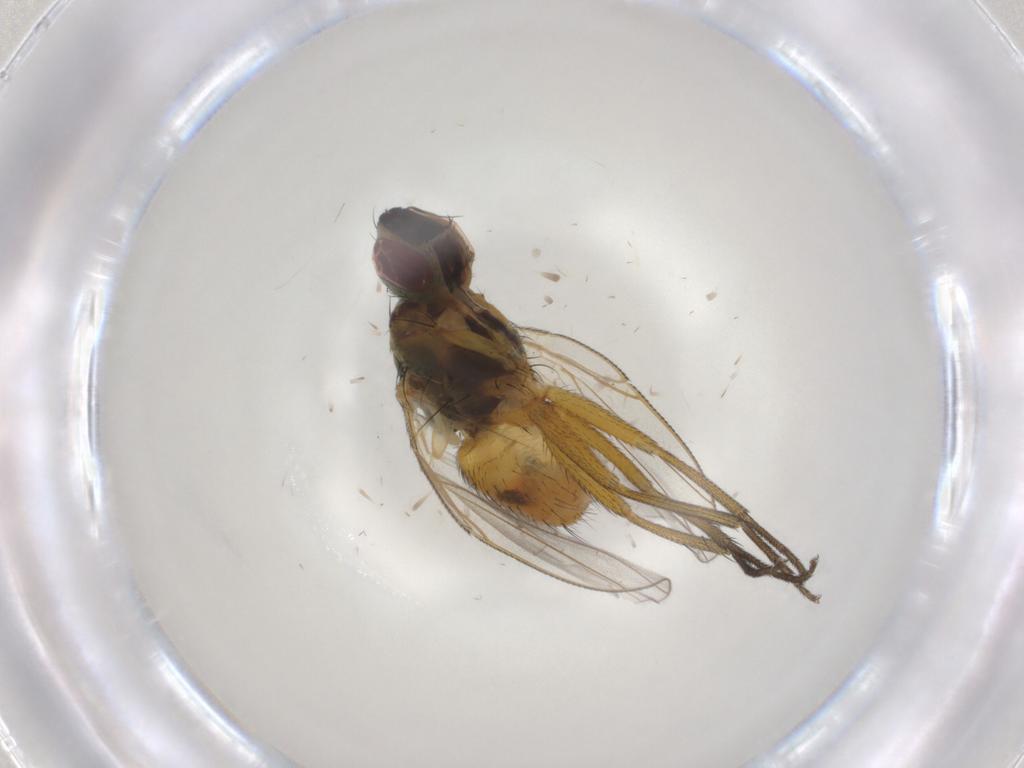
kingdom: Animalia
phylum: Arthropoda
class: Insecta
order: Diptera
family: Muscidae
